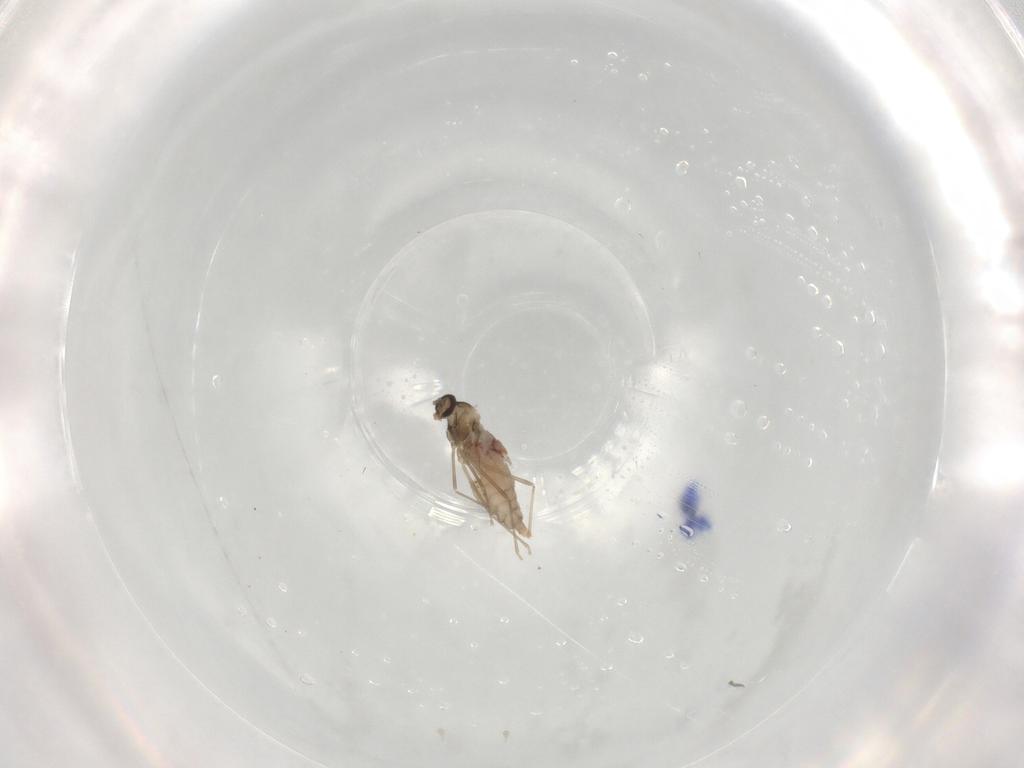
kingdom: Animalia
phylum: Arthropoda
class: Insecta
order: Diptera
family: Cecidomyiidae
